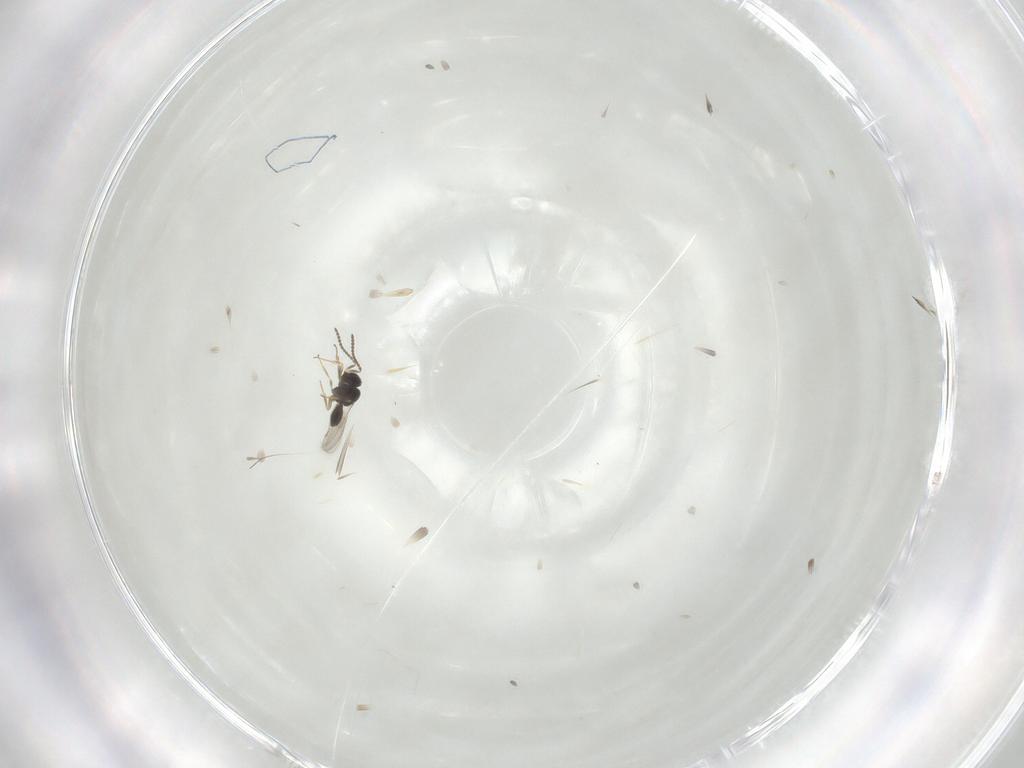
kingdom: Animalia
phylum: Arthropoda
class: Insecta
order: Hymenoptera
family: Scelionidae
